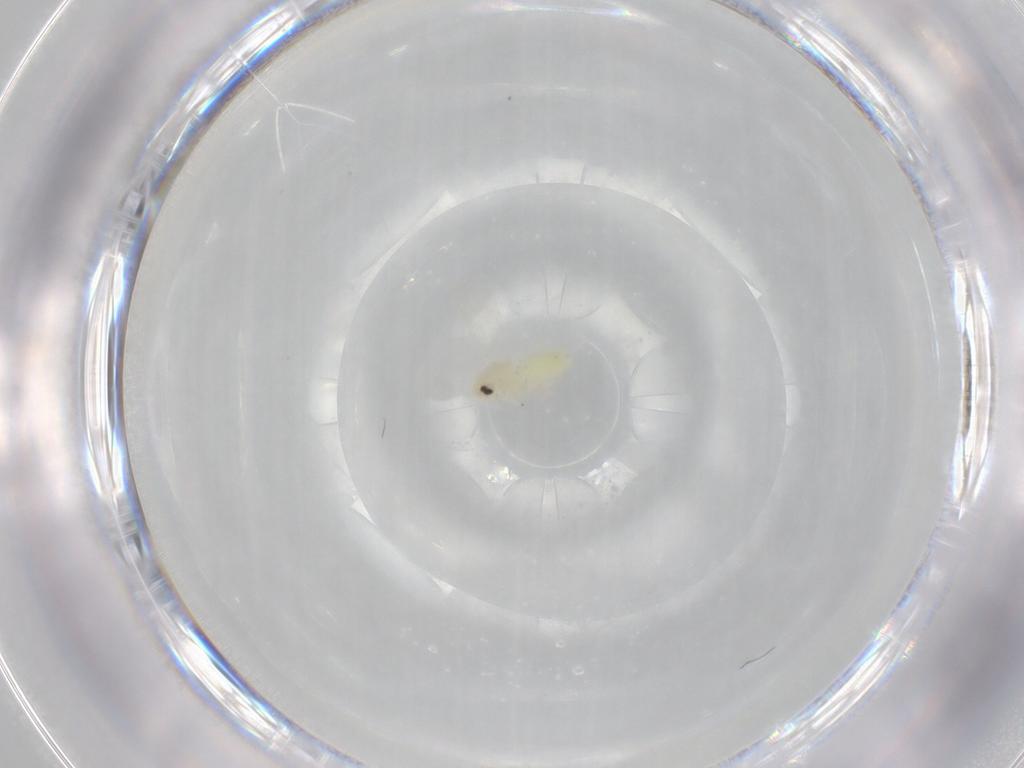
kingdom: Animalia
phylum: Arthropoda
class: Insecta
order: Hemiptera
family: Aleyrodidae
